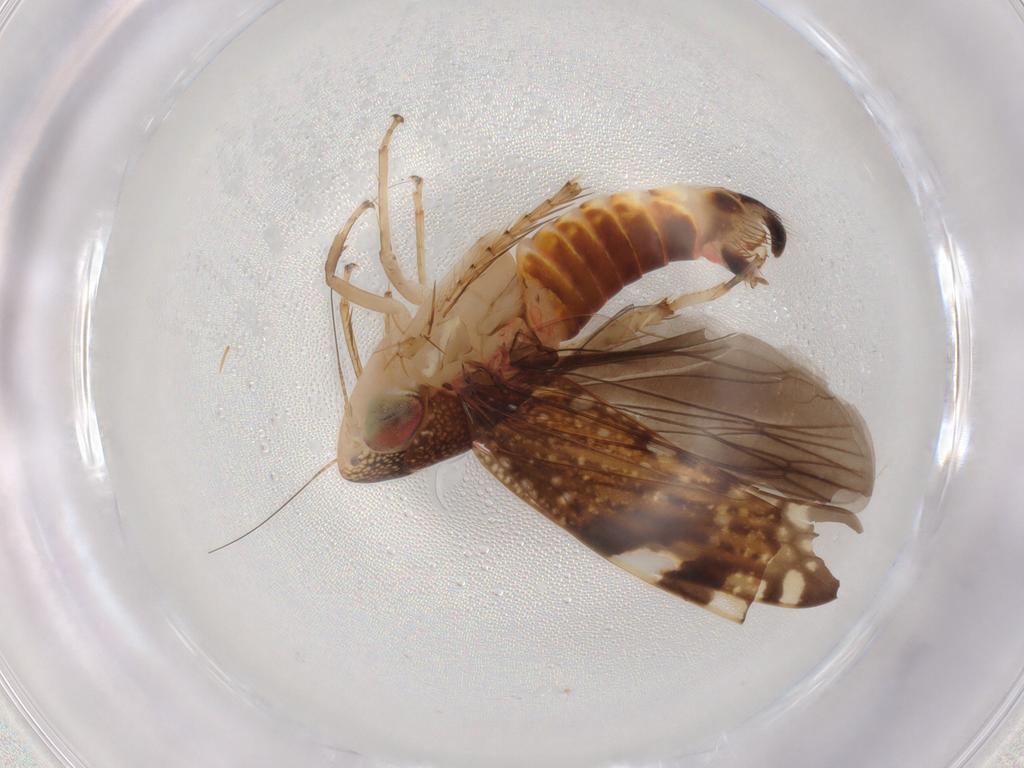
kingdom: Animalia
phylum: Arthropoda
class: Insecta
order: Hemiptera
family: Cicadellidae
